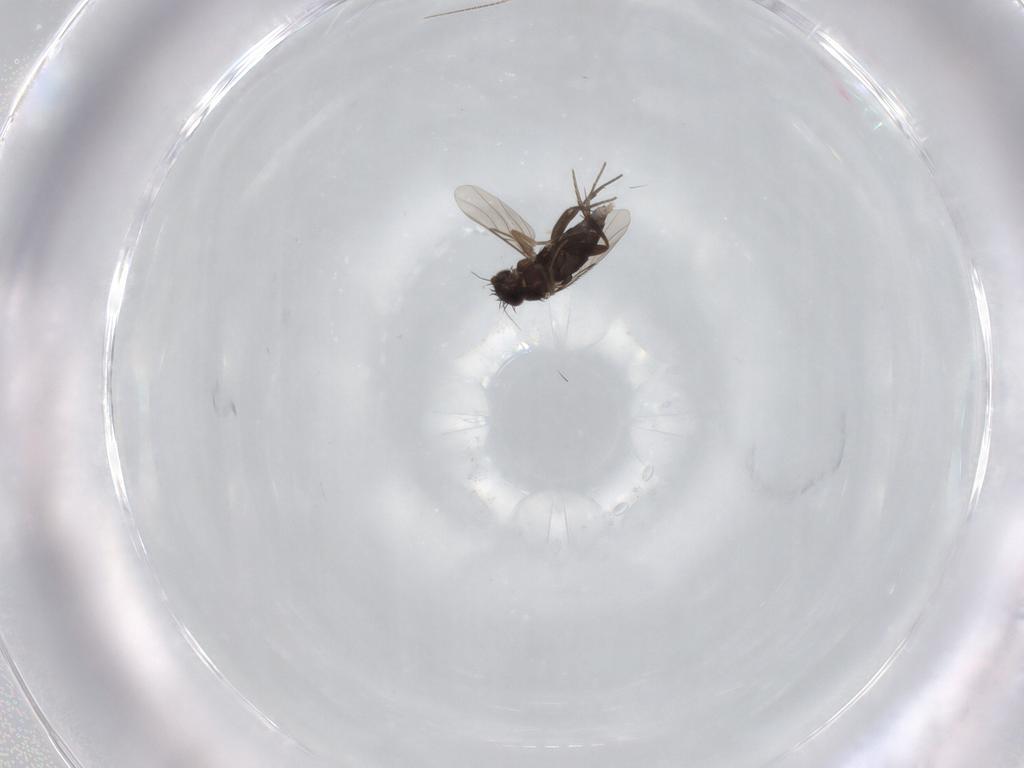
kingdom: Animalia
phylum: Arthropoda
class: Insecta
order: Diptera
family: Phoridae
